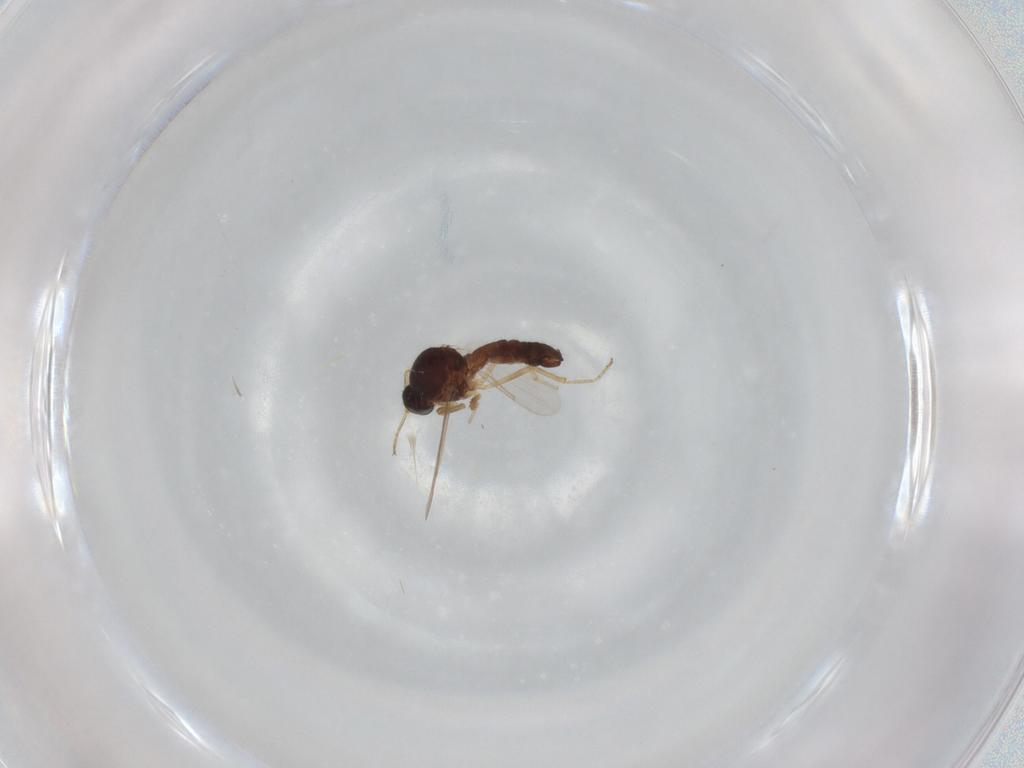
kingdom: Animalia
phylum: Arthropoda
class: Insecta
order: Diptera
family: Ceratopogonidae
